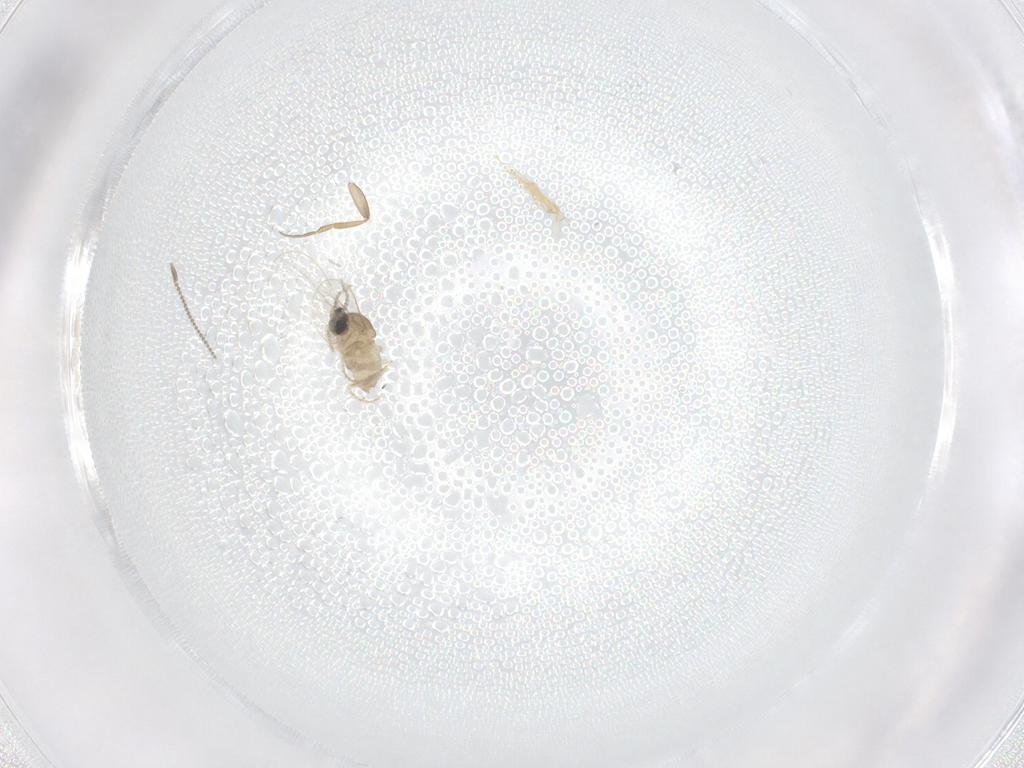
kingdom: Animalia
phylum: Arthropoda
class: Insecta
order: Diptera
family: Cecidomyiidae
